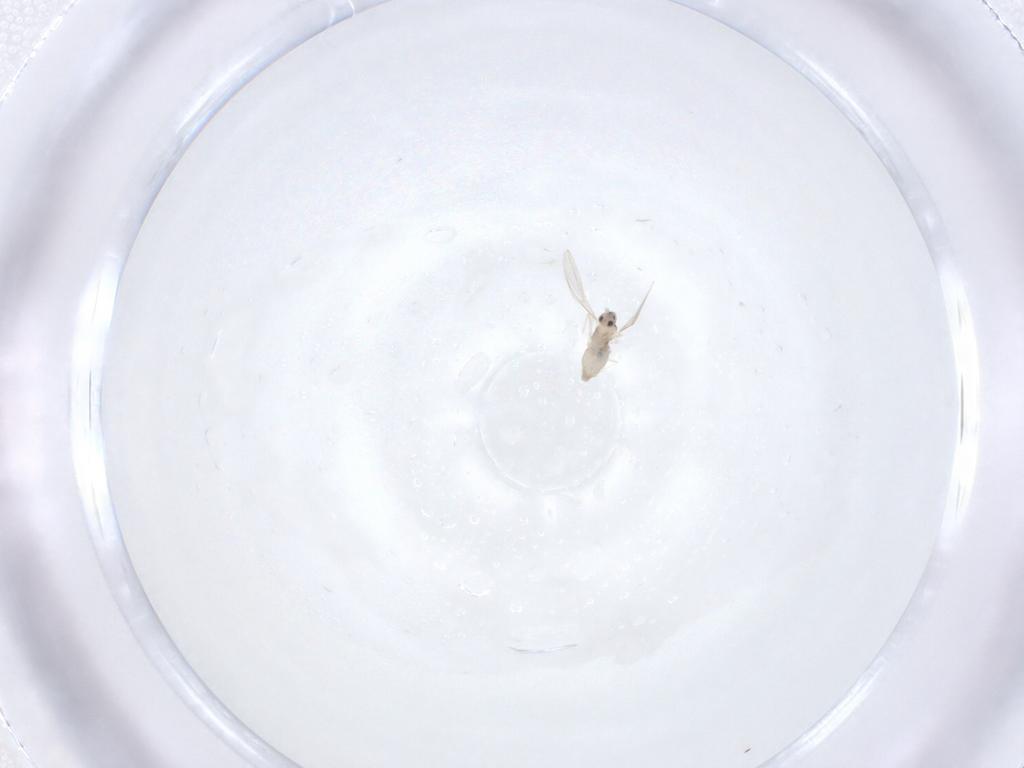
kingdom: Animalia
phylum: Arthropoda
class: Insecta
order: Diptera
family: Cecidomyiidae
